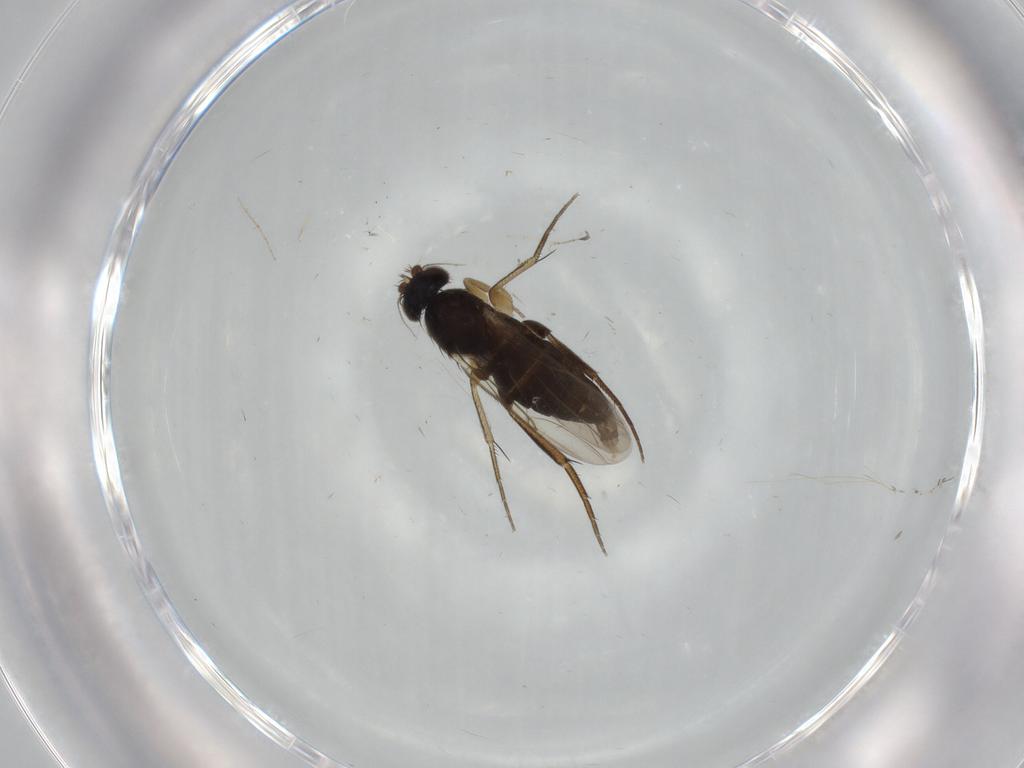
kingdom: Animalia
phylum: Arthropoda
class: Insecta
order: Diptera
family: Phoridae
